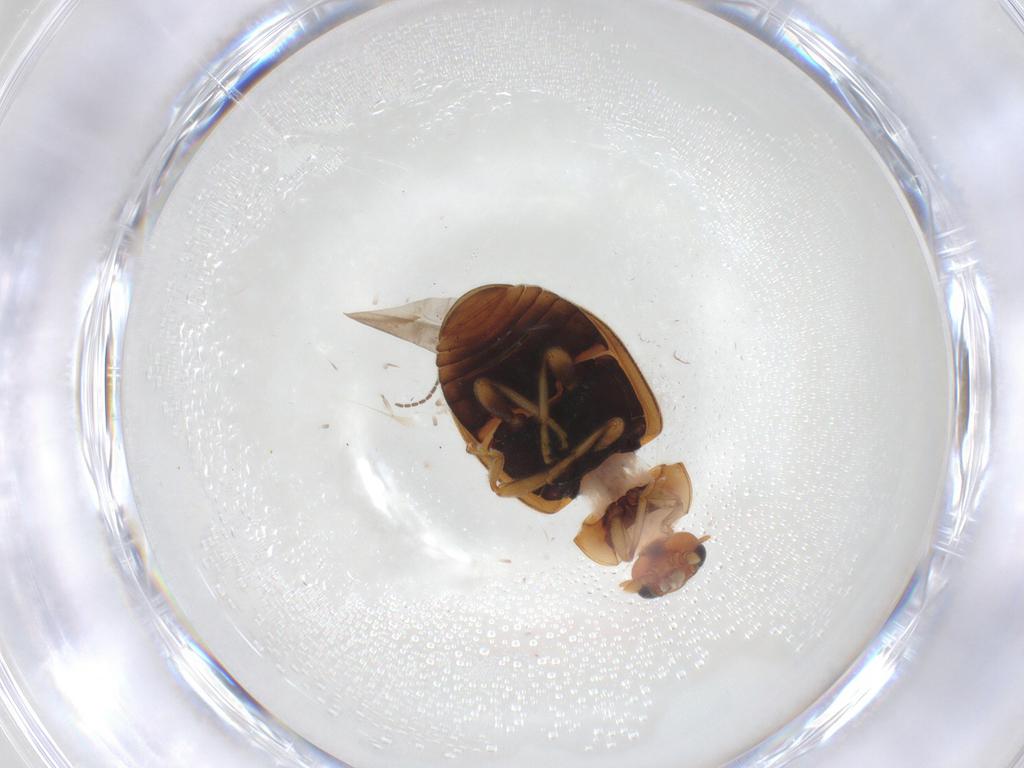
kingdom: Animalia
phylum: Arthropoda
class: Insecta
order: Coleoptera
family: Coccinellidae
